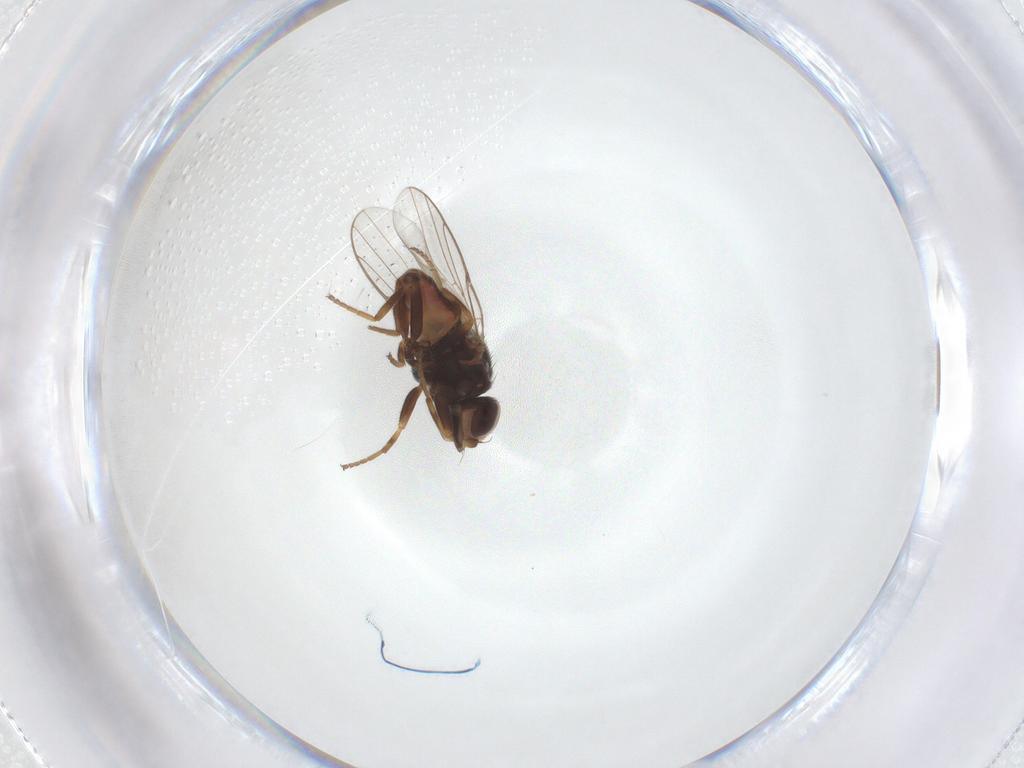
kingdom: Animalia
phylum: Arthropoda
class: Insecta
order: Diptera
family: Chloropidae
